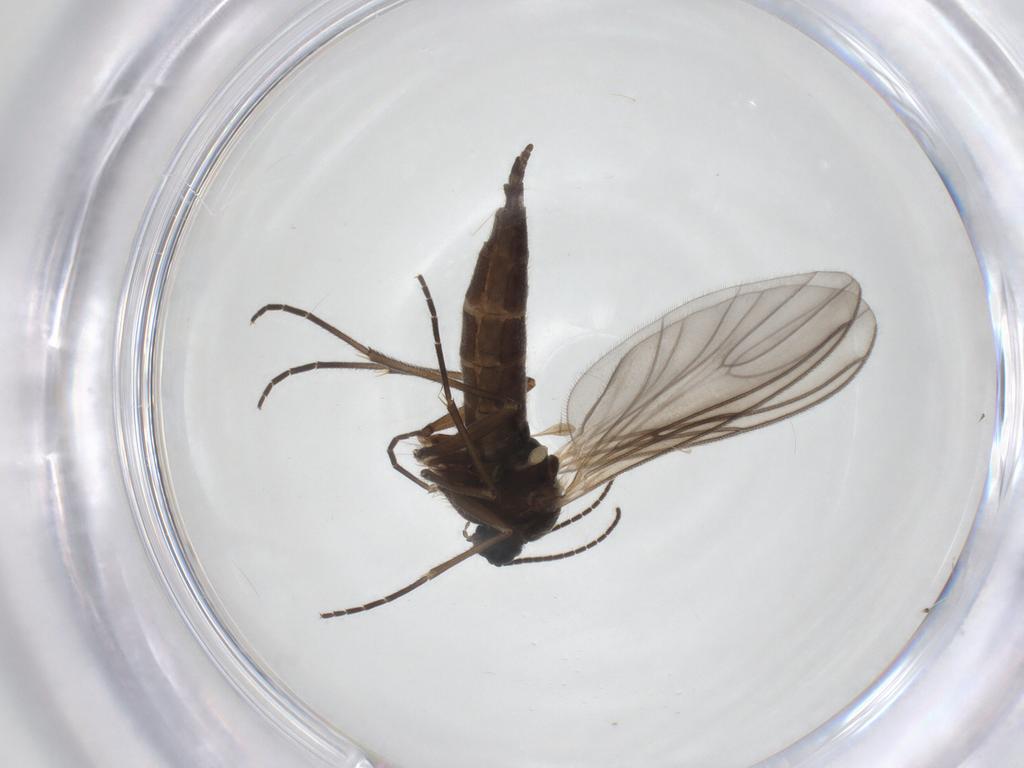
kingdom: Animalia
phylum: Arthropoda
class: Insecta
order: Diptera
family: Sciaridae
